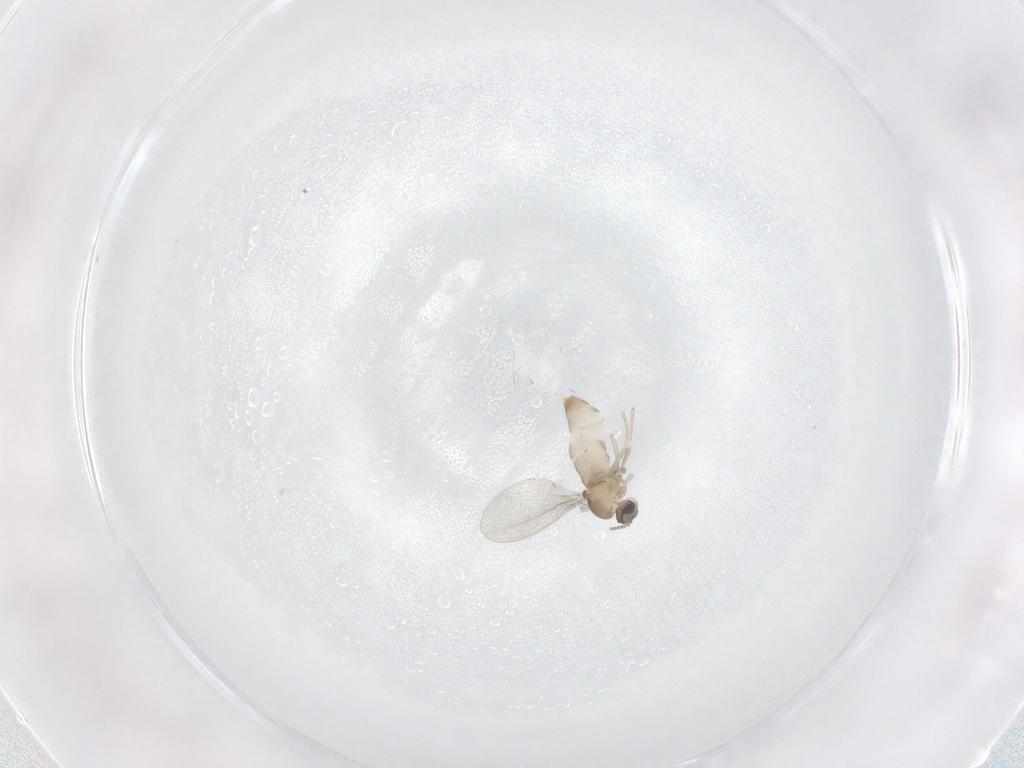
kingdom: Animalia
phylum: Arthropoda
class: Insecta
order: Diptera
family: Cecidomyiidae
